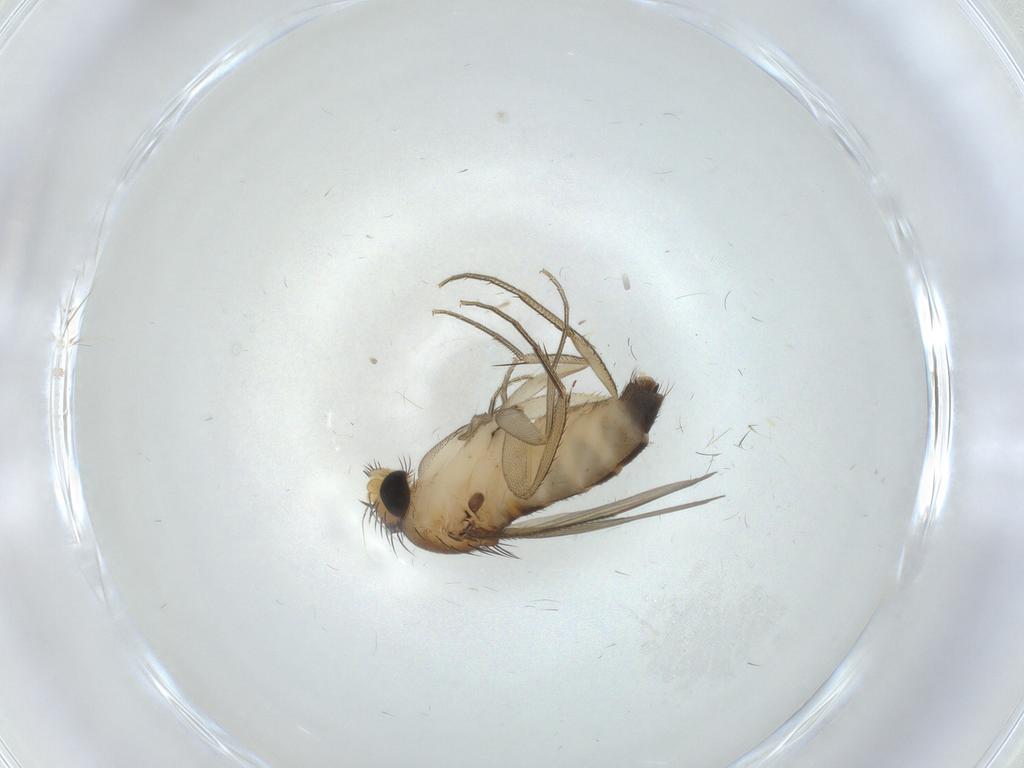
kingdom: Animalia
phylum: Arthropoda
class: Insecta
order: Diptera
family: Phoridae
